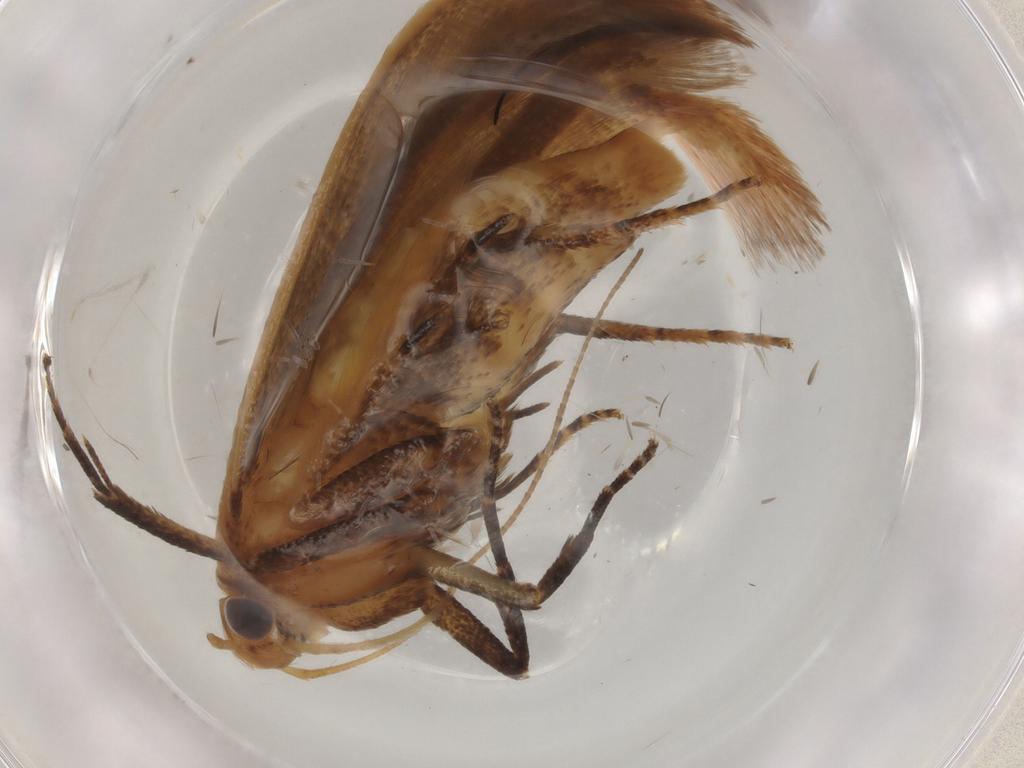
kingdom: Animalia
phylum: Arthropoda
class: Insecta
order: Lepidoptera
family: Gelechiidae
